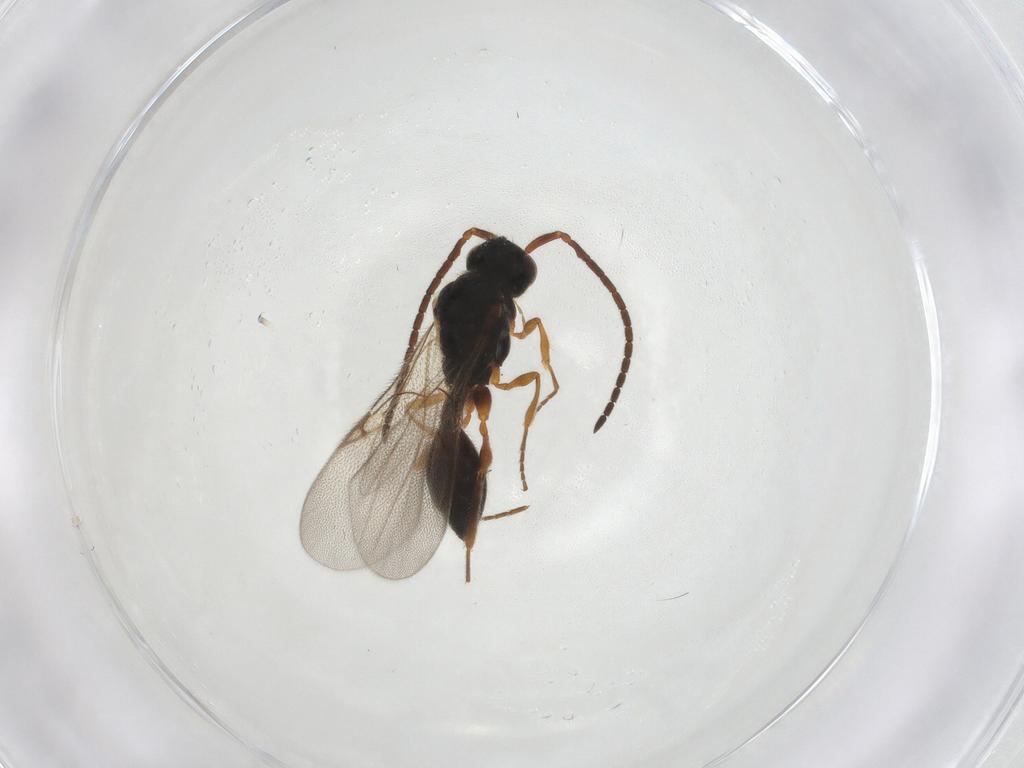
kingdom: Animalia
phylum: Arthropoda
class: Insecta
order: Hymenoptera
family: Diapriidae
